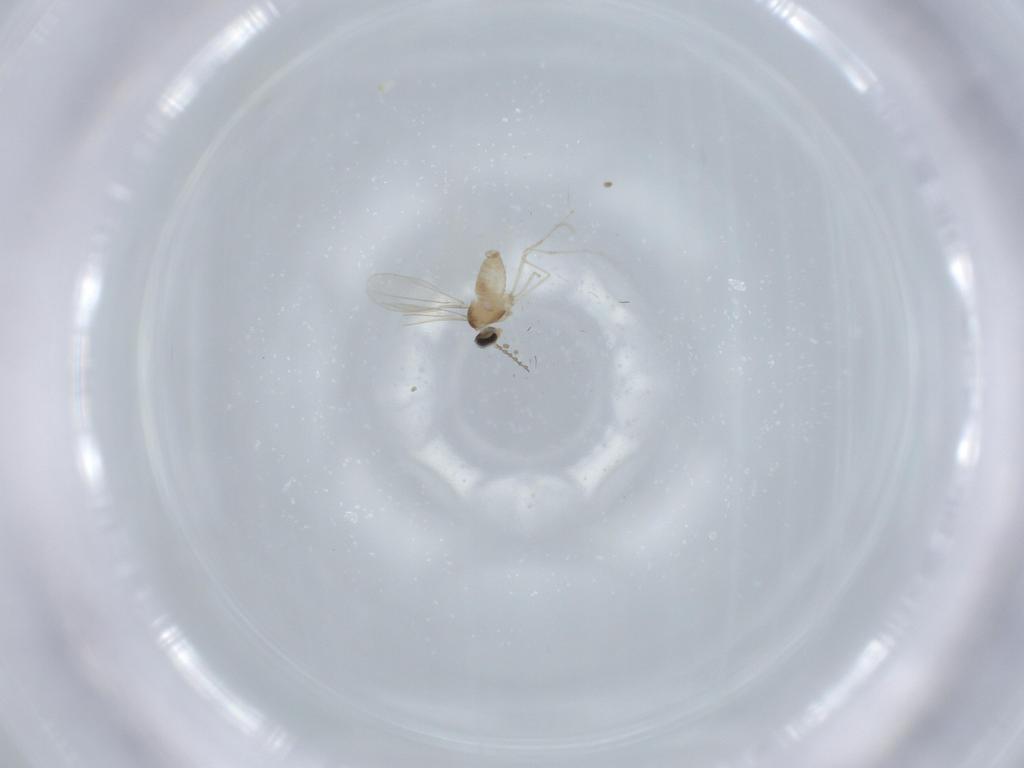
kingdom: Animalia
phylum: Arthropoda
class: Insecta
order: Diptera
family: Cecidomyiidae
